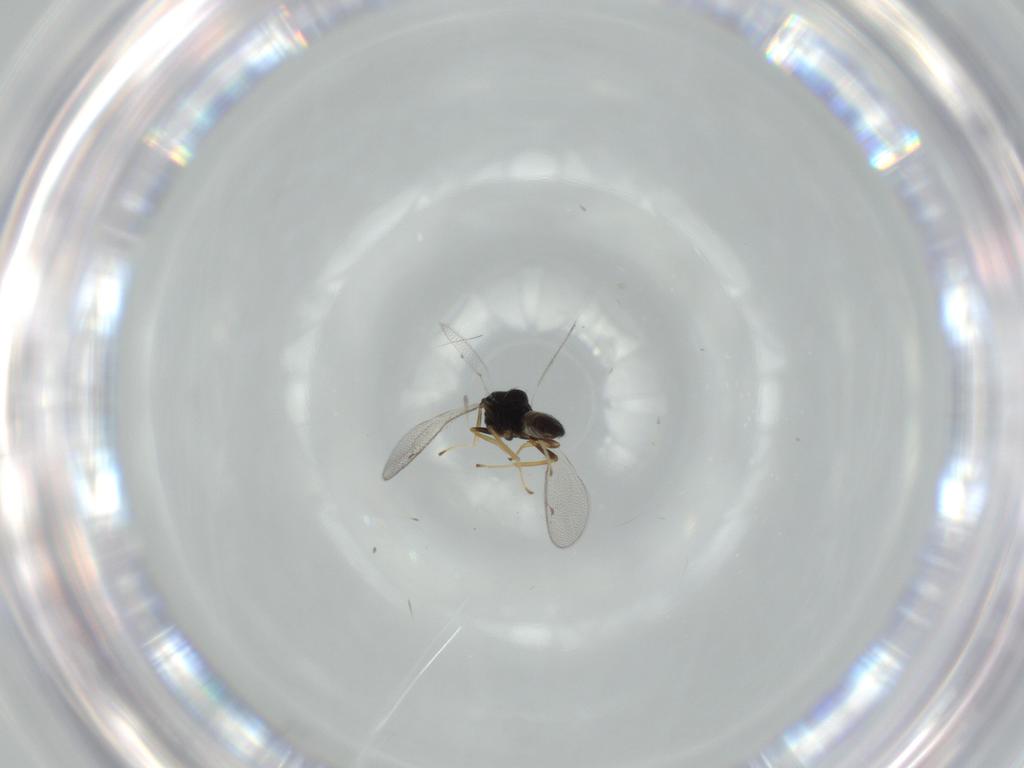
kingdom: Animalia
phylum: Arthropoda
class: Insecta
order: Hymenoptera
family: Pteromalidae
